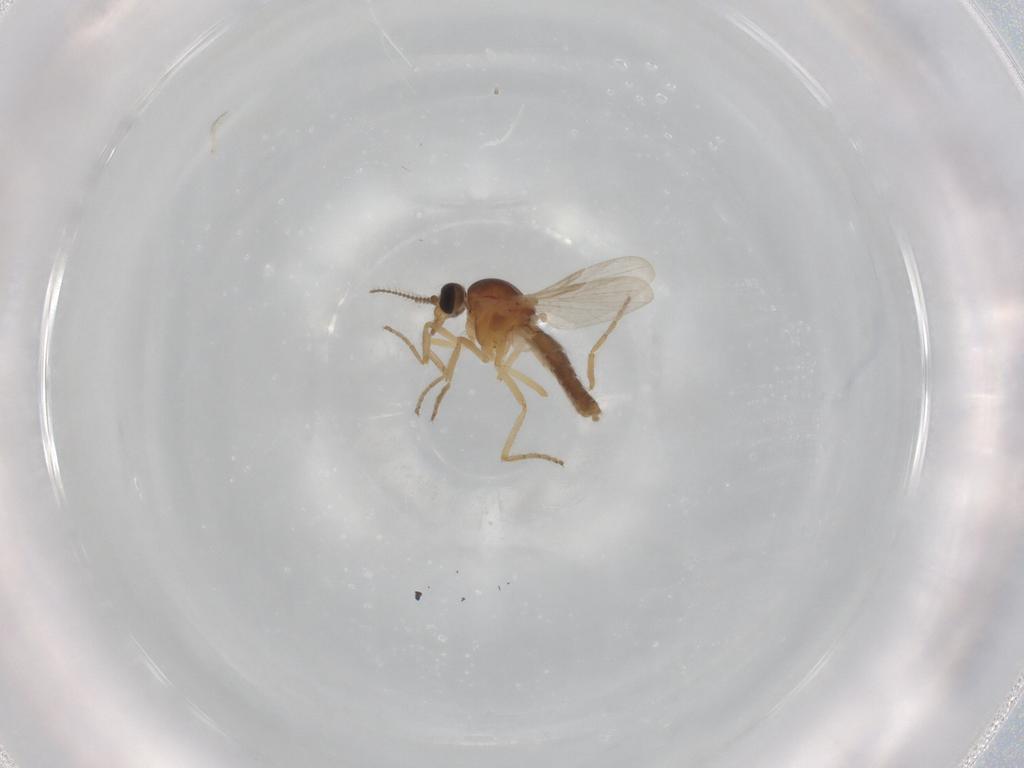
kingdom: Animalia
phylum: Arthropoda
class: Insecta
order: Diptera
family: Ceratopogonidae
